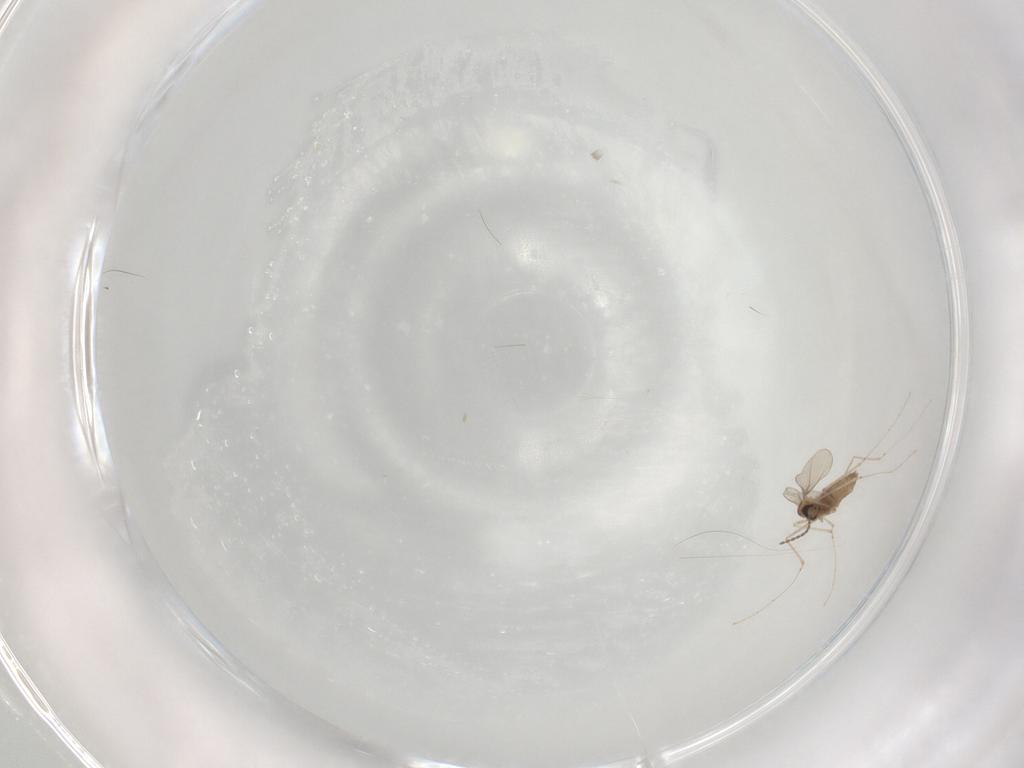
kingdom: Animalia
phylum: Arthropoda
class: Insecta
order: Diptera
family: Cecidomyiidae
